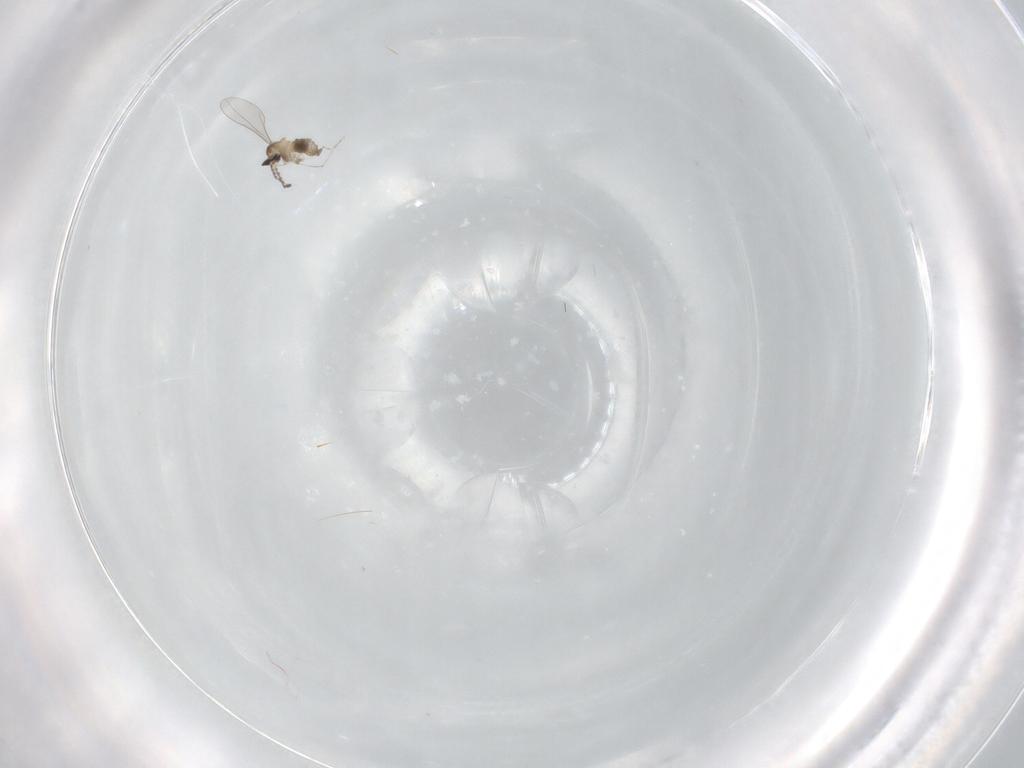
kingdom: Animalia
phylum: Arthropoda
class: Insecta
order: Diptera
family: Cecidomyiidae
